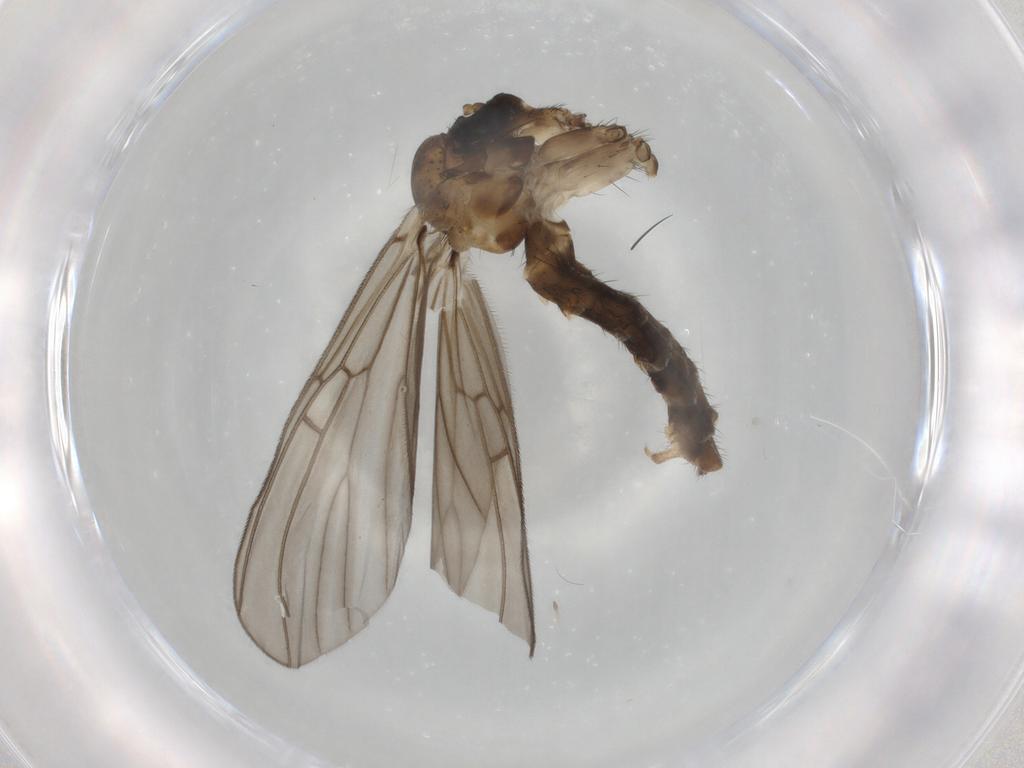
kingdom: Animalia
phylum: Arthropoda
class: Insecta
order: Diptera
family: Mycetophilidae
